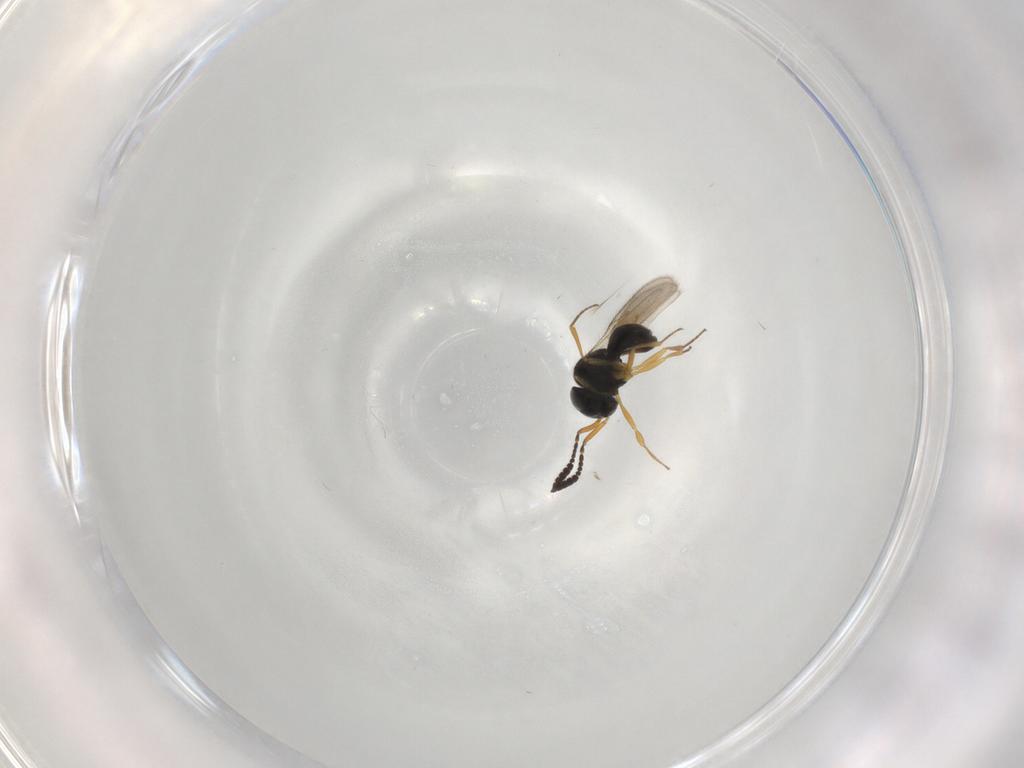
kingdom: Animalia
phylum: Arthropoda
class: Insecta
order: Hymenoptera
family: Scelionidae
